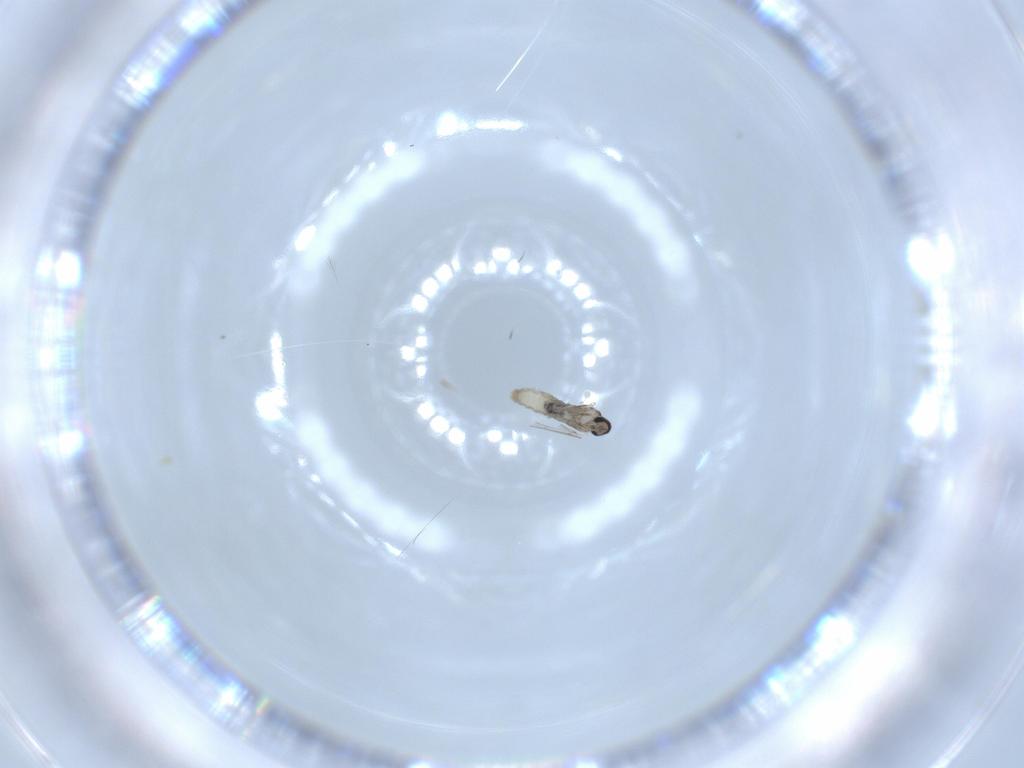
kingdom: Animalia
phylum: Arthropoda
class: Insecta
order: Diptera
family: Cecidomyiidae
